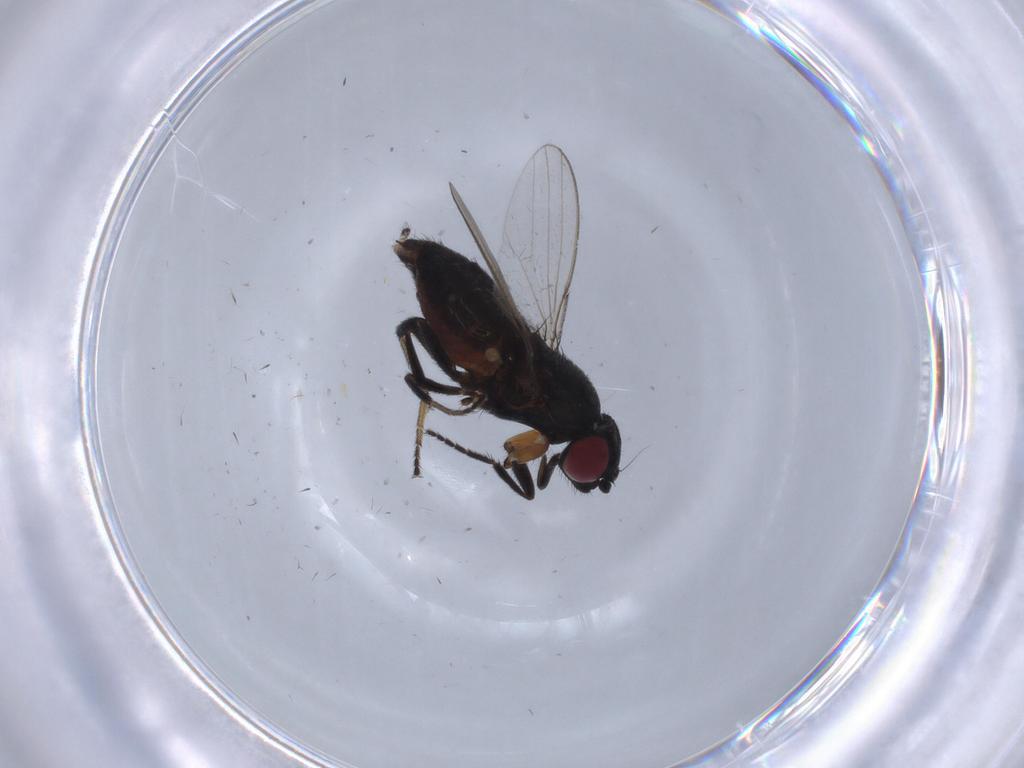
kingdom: Animalia
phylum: Arthropoda
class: Insecta
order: Diptera
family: Milichiidae
